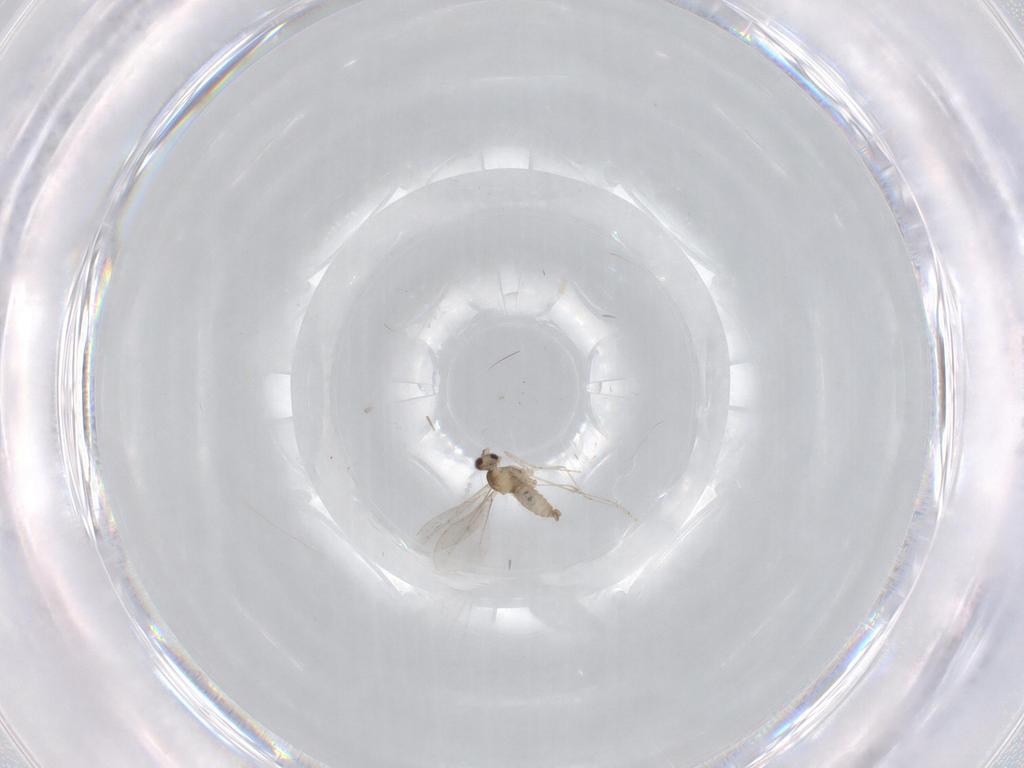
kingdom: Animalia
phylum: Arthropoda
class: Insecta
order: Diptera
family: Cecidomyiidae
